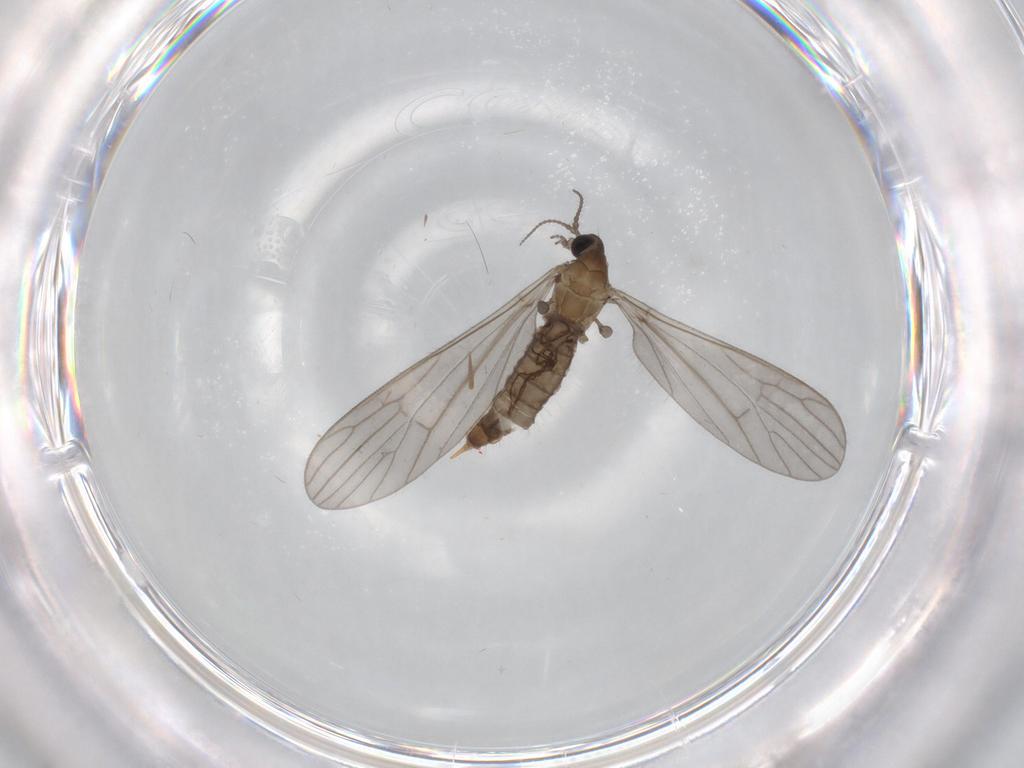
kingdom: Animalia
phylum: Arthropoda
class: Insecta
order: Diptera
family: Limoniidae
